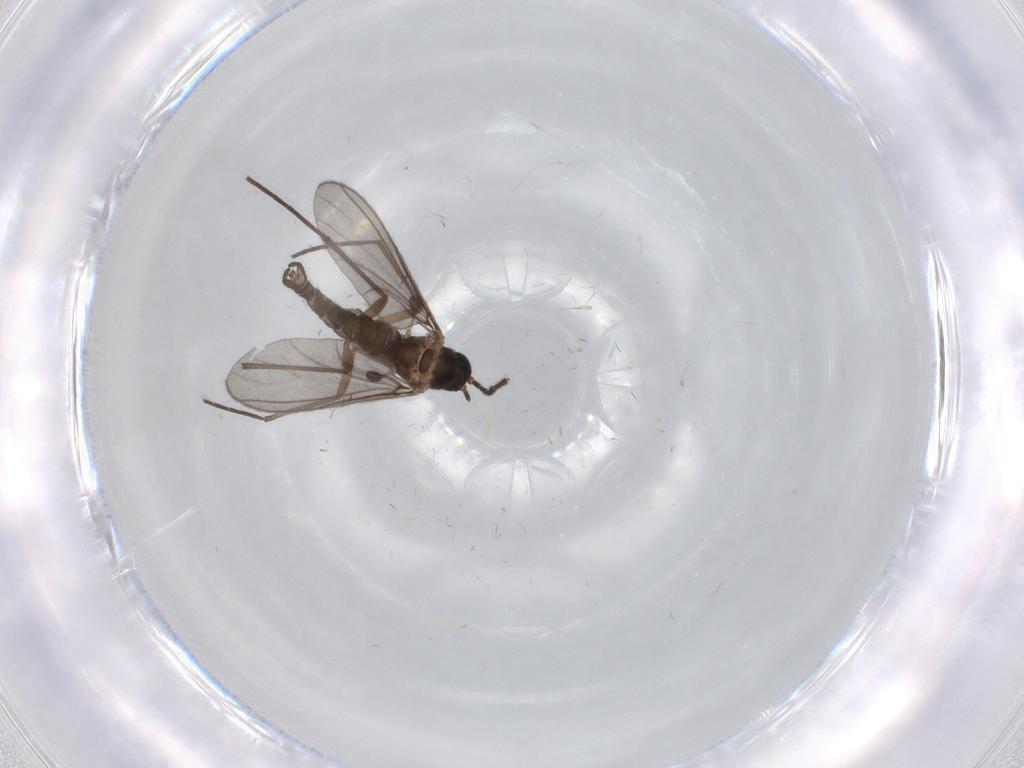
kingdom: Animalia
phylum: Arthropoda
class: Insecta
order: Diptera
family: Sciaridae
